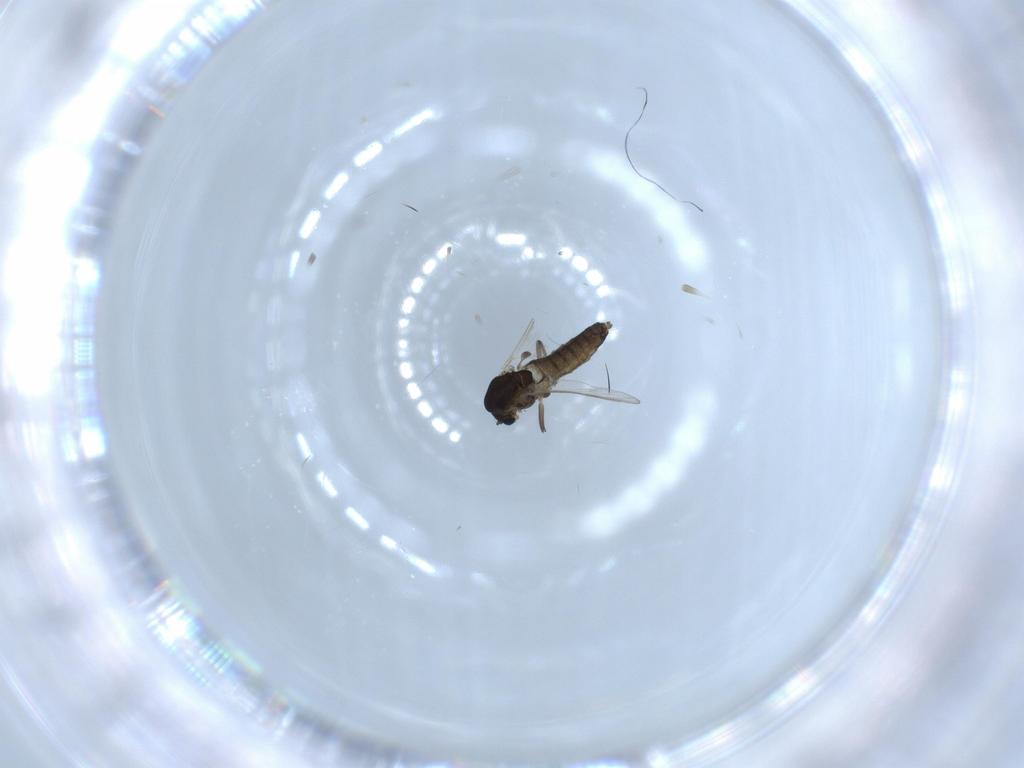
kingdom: Animalia
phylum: Arthropoda
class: Insecta
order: Diptera
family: Chironomidae
